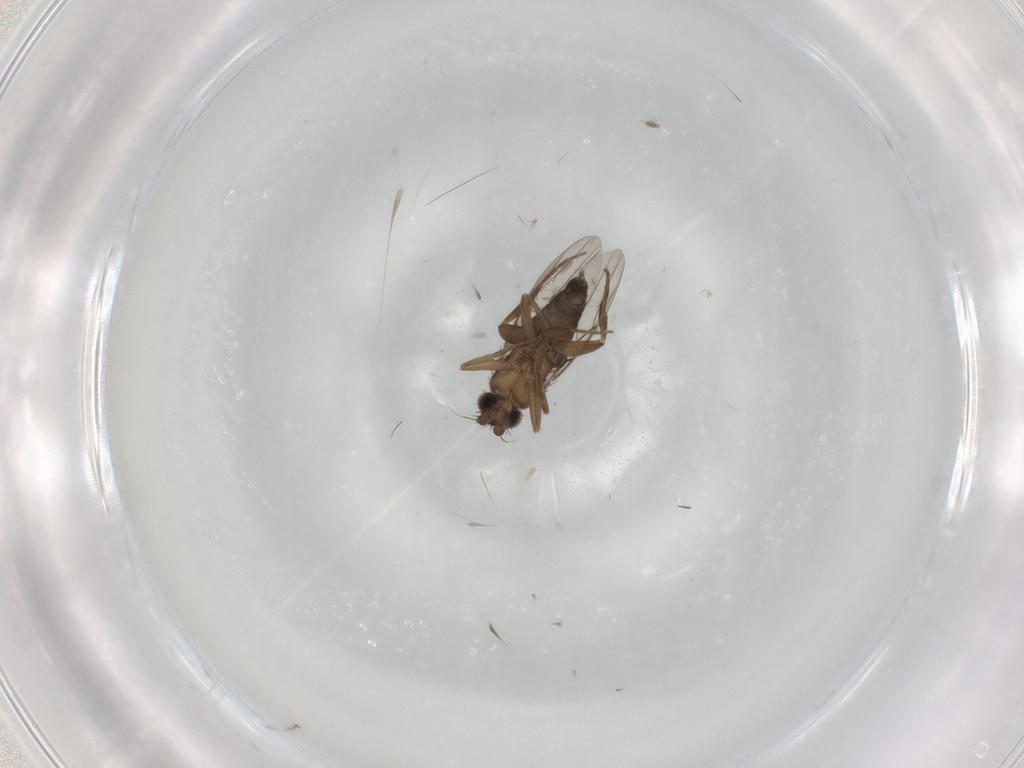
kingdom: Animalia
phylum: Arthropoda
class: Insecta
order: Diptera
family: Phoridae
